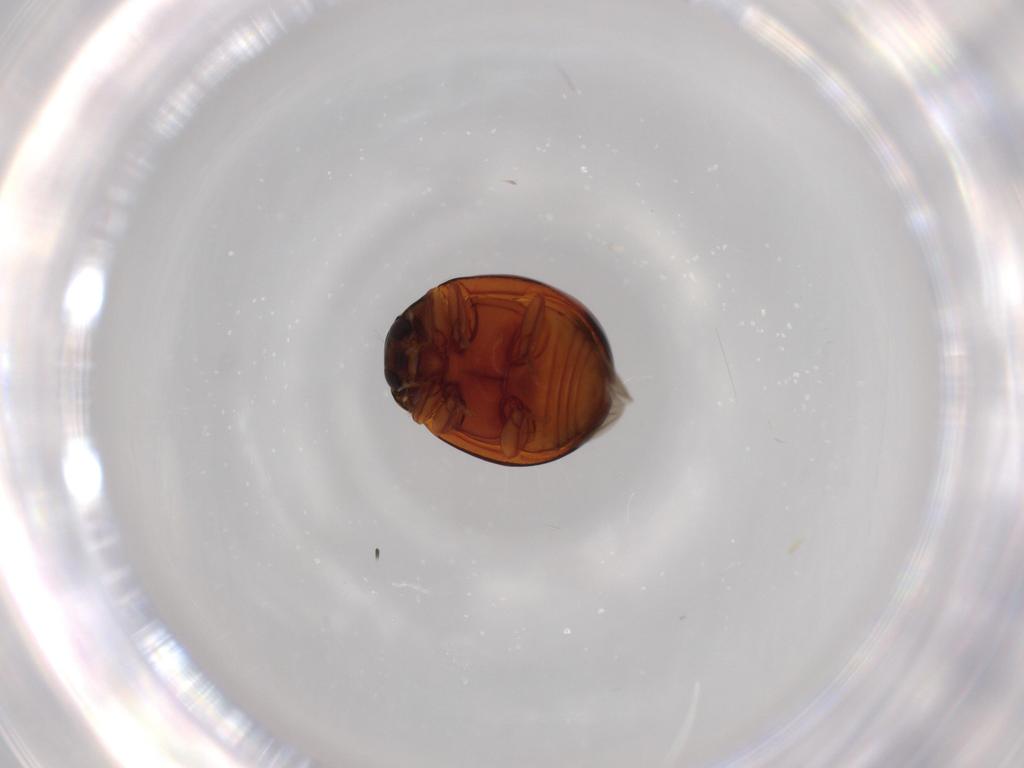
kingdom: Animalia
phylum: Arthropoda
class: Insecta
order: Coleoptera
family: Coccinellidae
